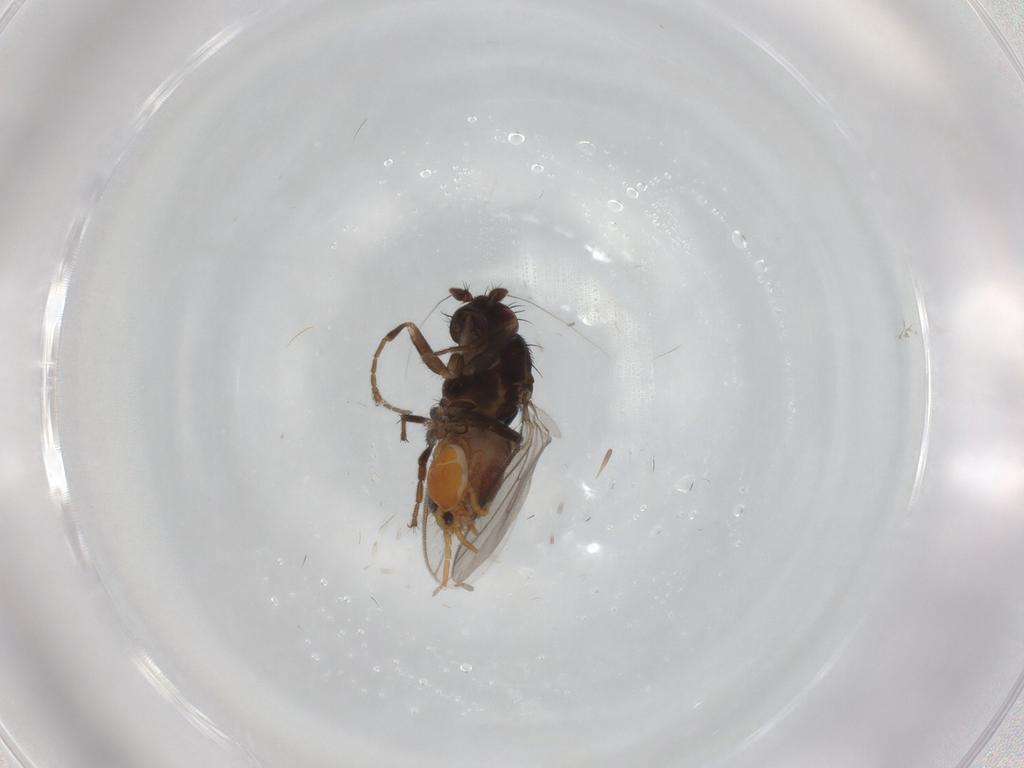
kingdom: Animalia
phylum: Arthropoda
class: Insecta
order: Diptera
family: Sphaeroceridae
